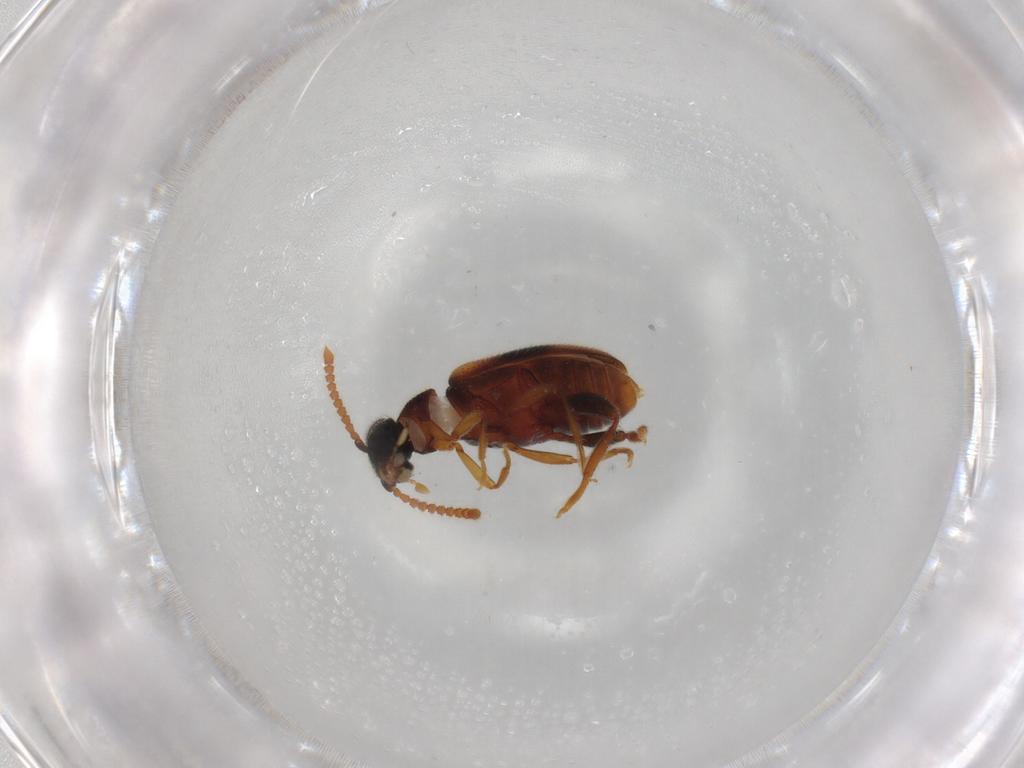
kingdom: Animalia
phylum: Arthropoda
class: Insecta
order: Coleoptera
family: Aderidae
